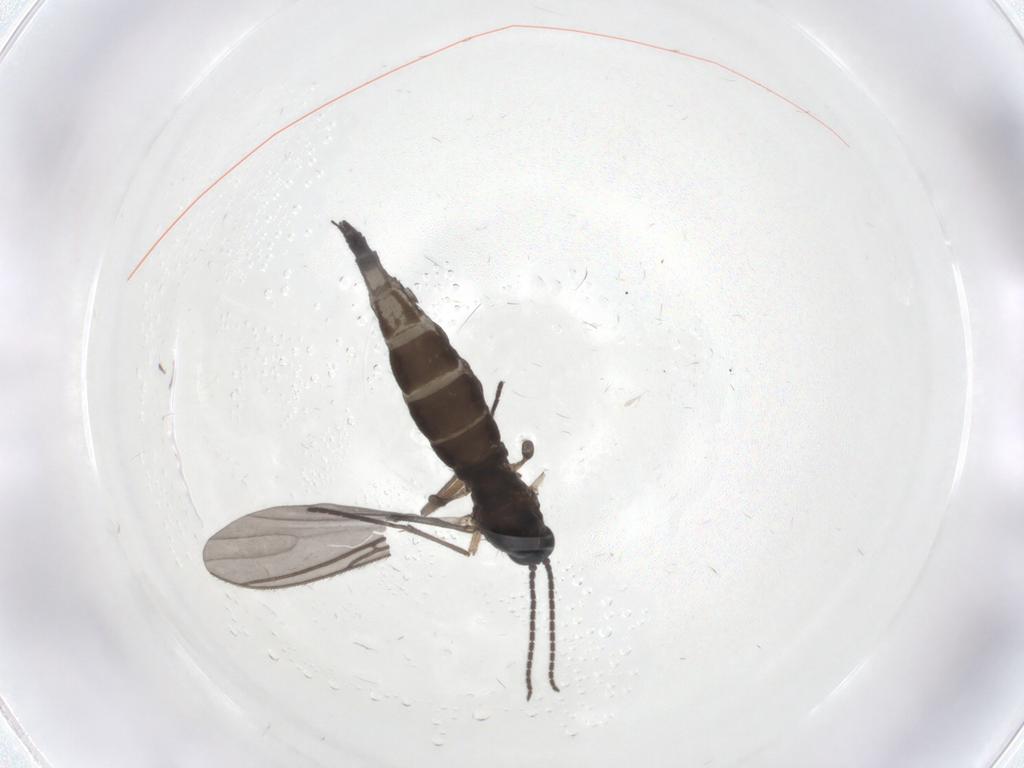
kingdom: Animalia
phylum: Arthropoda
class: Insecta
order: Diptera
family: Sciaridae
